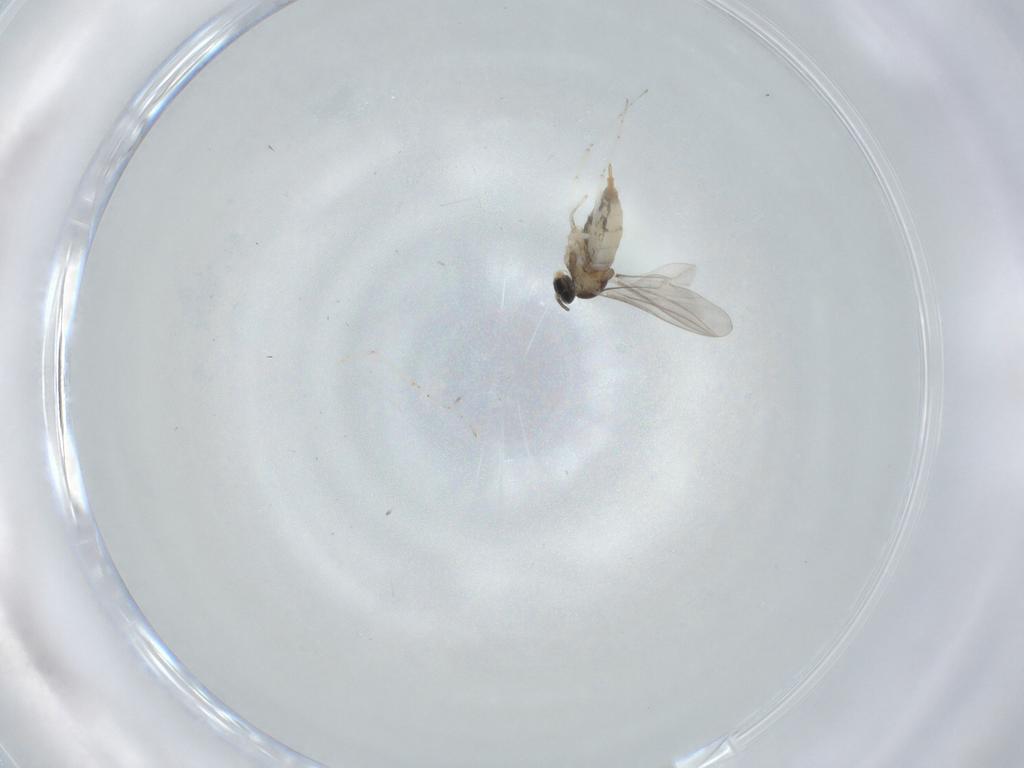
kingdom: Animalia
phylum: Arthropoda
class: Insecta
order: Diptera
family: Cecidomyiidae
